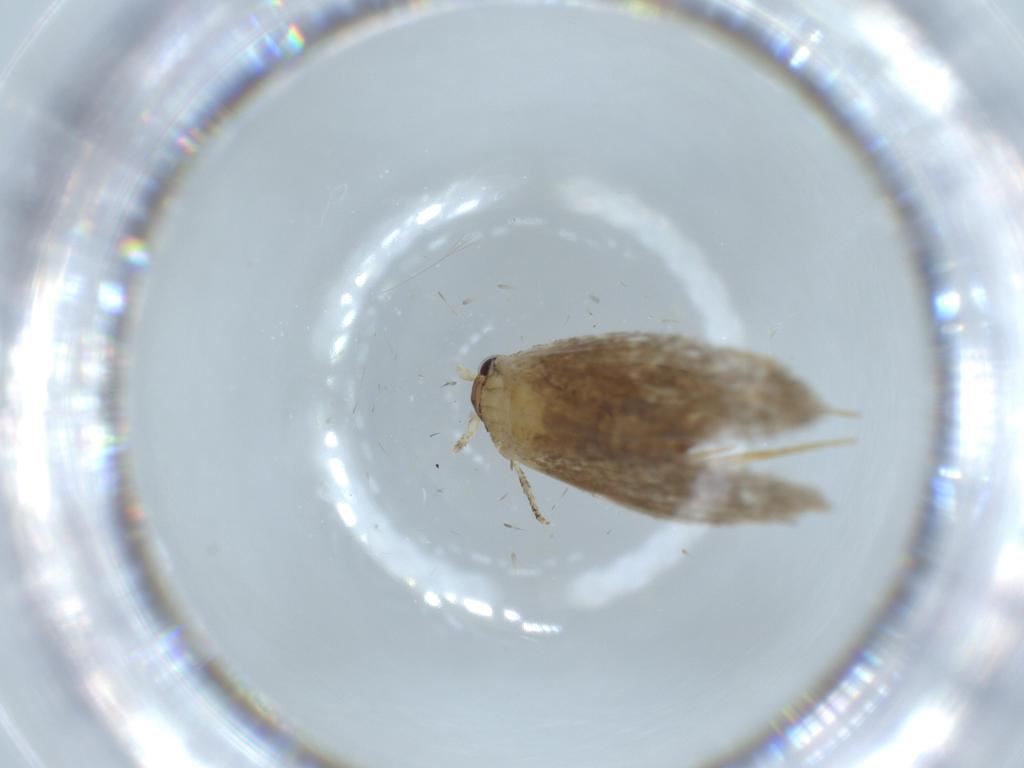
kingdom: Animalia
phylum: Arthropoda
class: Insecta
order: Lepidoptera
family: Tineidae
